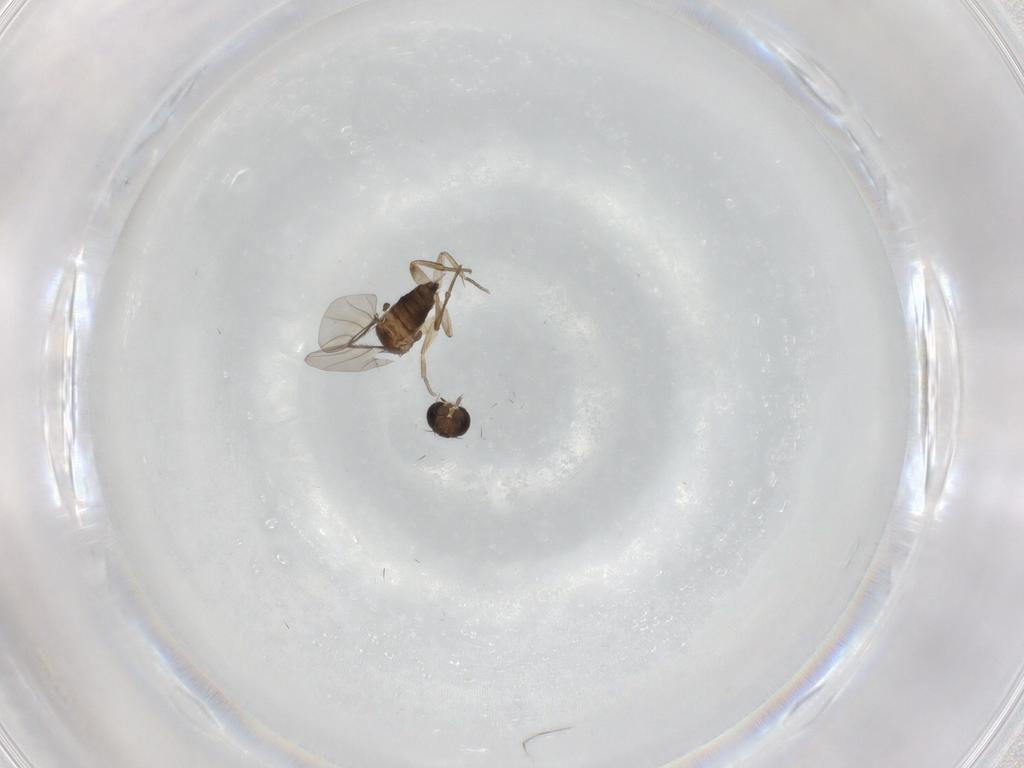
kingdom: Animalia
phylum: Arthropoda
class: Insecta
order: Diptera
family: Phoridae
